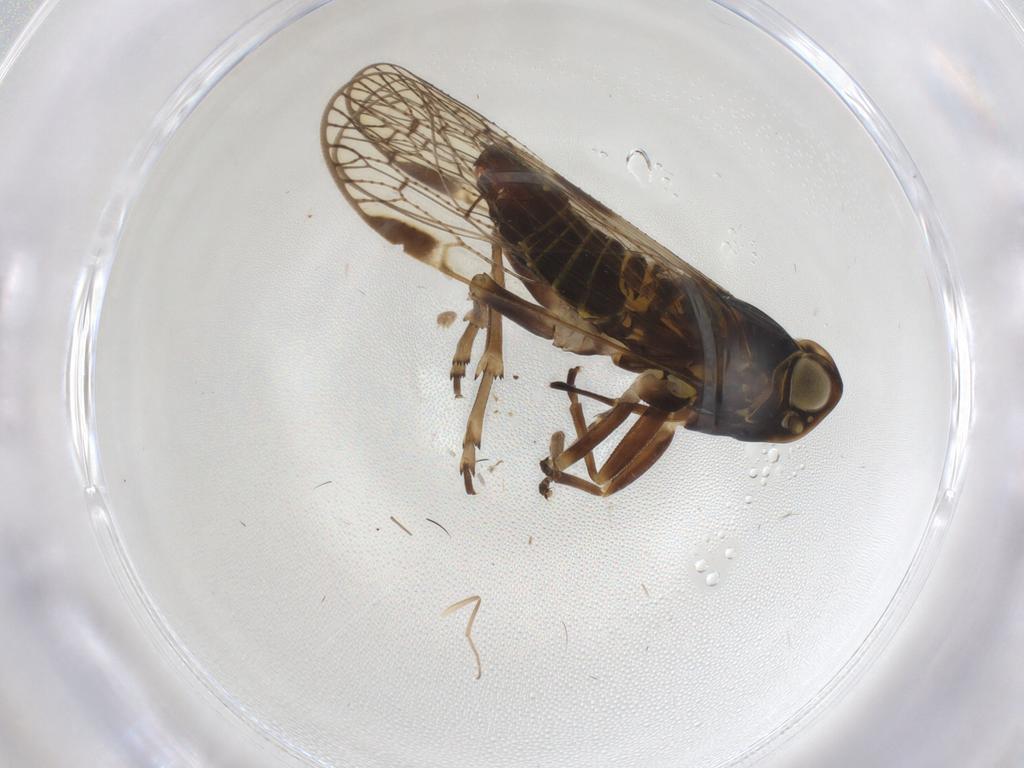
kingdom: Animalia
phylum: Arthropoda
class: Insecta
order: Hemiptera
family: Cixiidae
